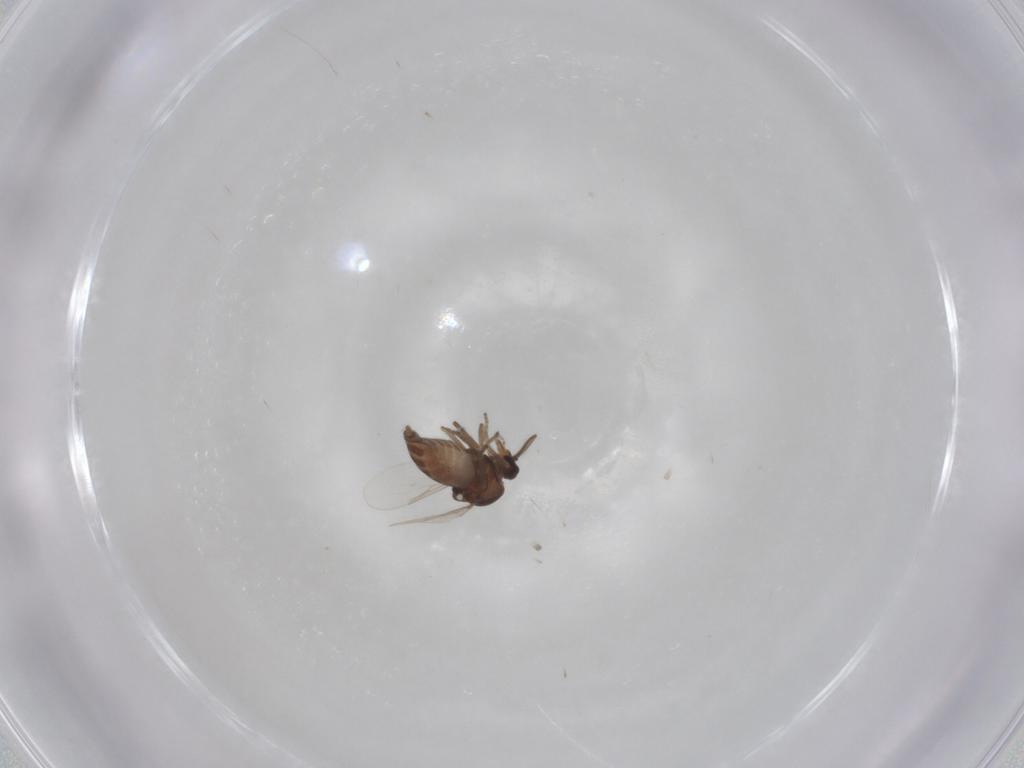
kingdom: Animalia
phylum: Arthropoda
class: Insecta
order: Diptera
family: Ceratopogonidae
